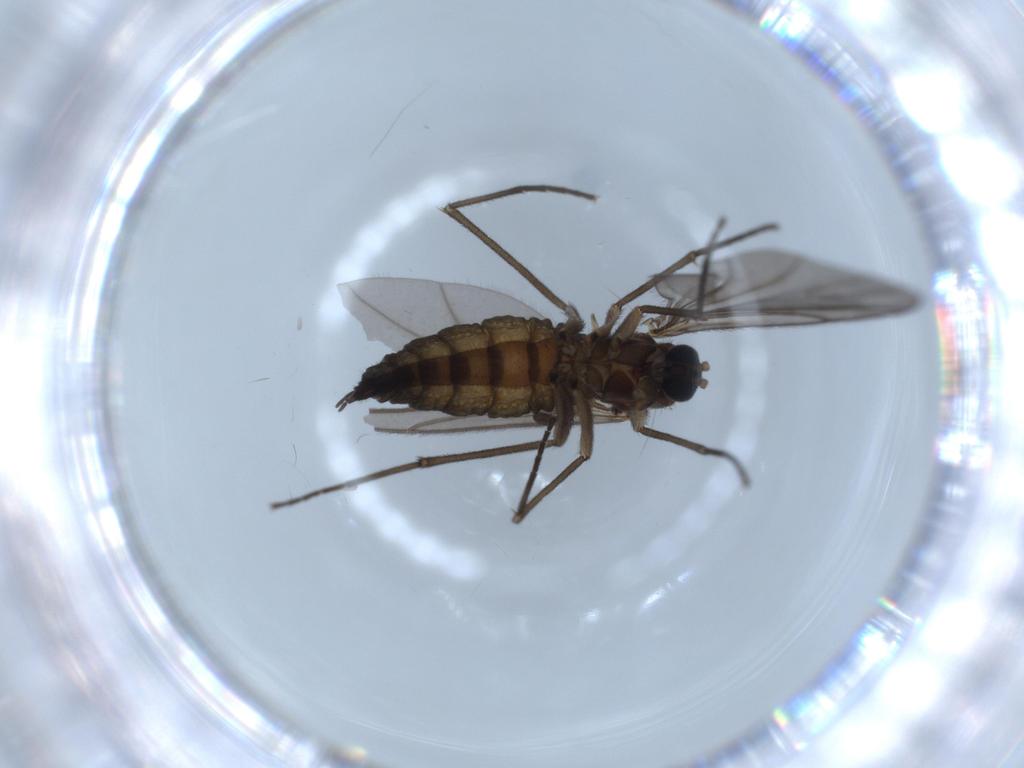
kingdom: Animalia
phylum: Arthropoda
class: Insecta
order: Diptera
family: Sciaridae
